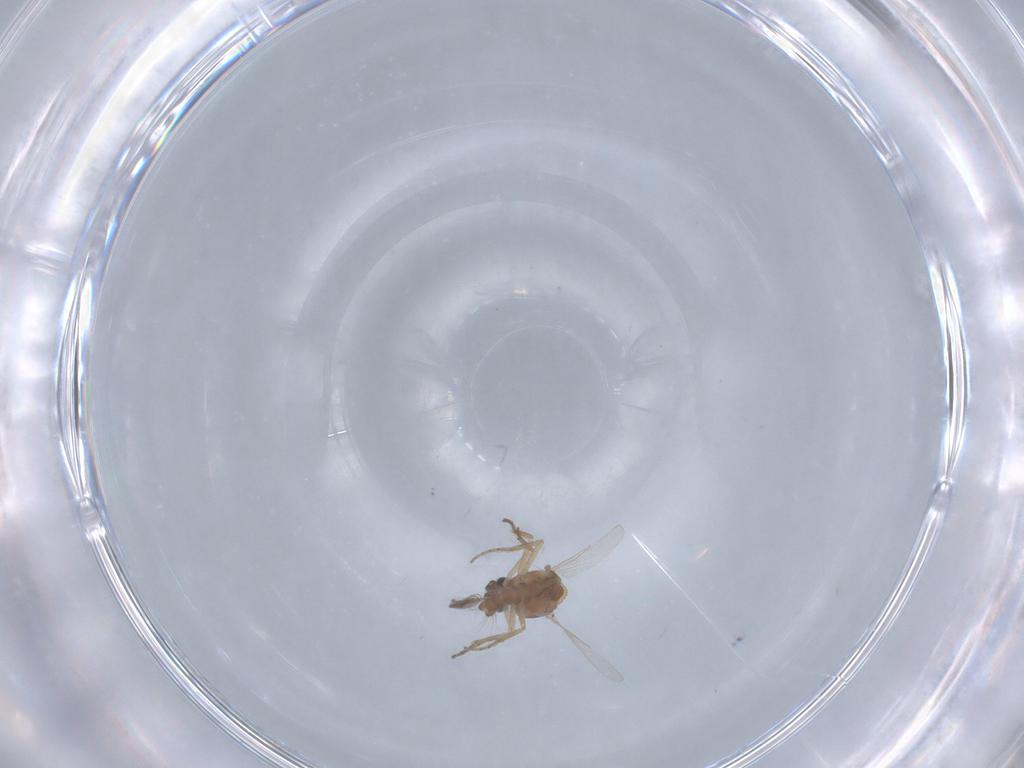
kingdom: Animalia
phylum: Arthropoda
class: Insecta
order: Diptera
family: Ceratopogonidae
